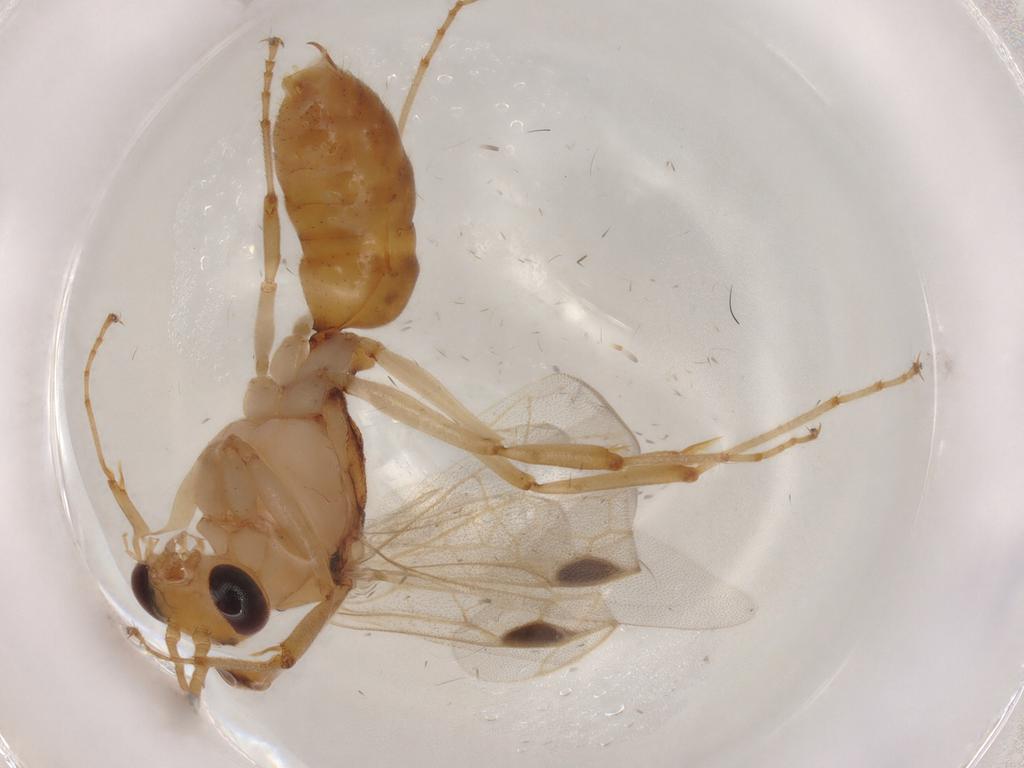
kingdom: Animalia
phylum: Arthropoda
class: Insecta
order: Hymenoptera
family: Formicidae
